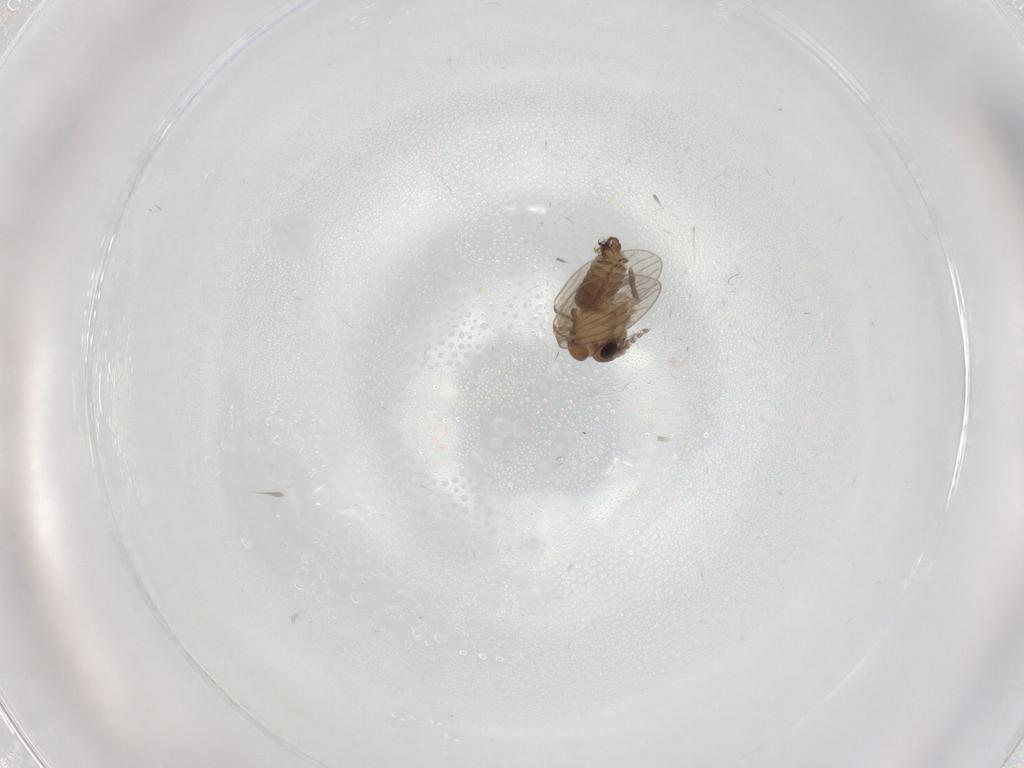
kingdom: Animalia
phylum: Arthropoda
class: Insecta
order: Diptera
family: Psychodidae
